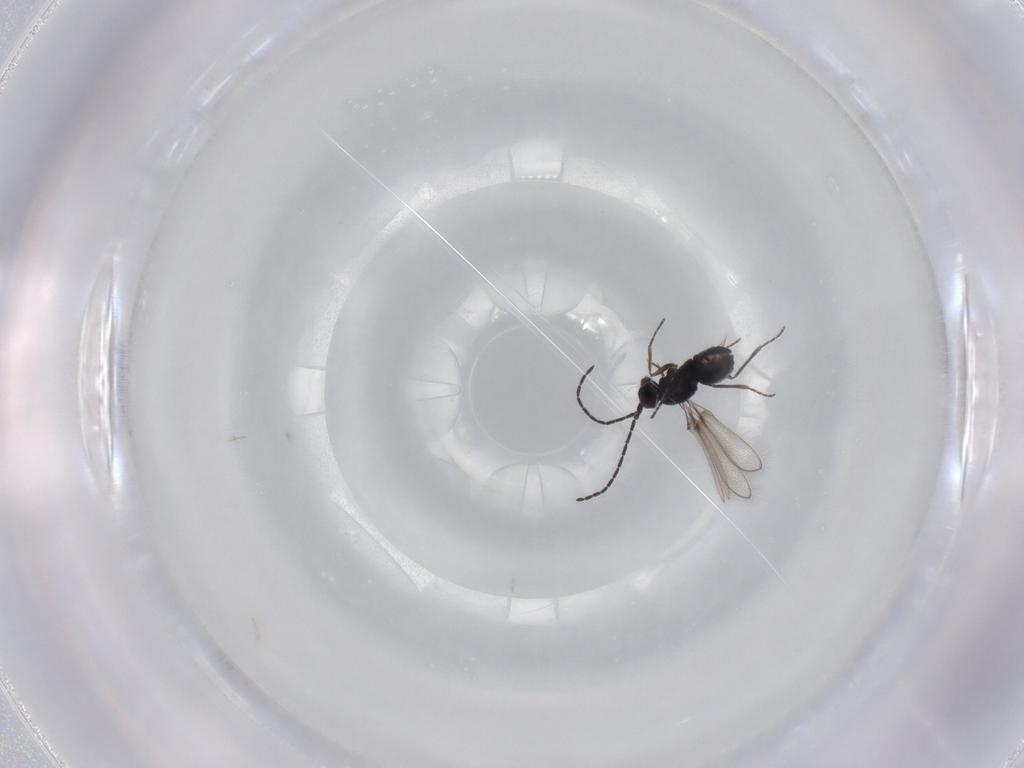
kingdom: Animalia
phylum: Arthropoda
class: Insecta
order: Hymenoptera
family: Mymaridae
